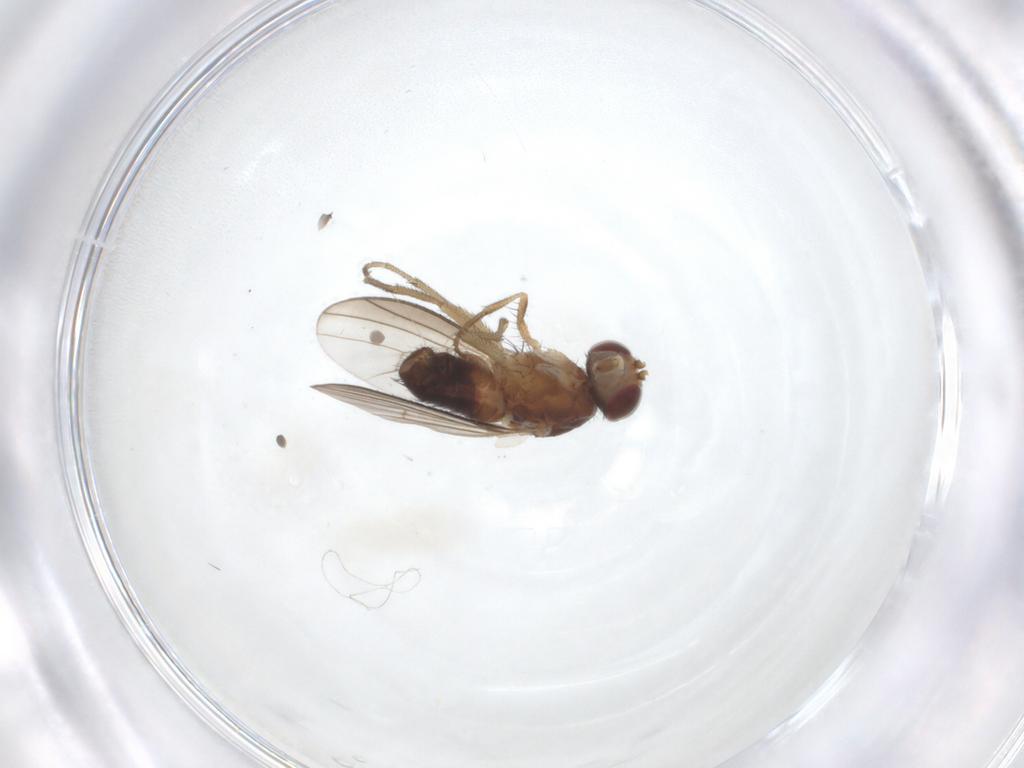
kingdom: Animalia
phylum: Arthropoda
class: Insecta
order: Diptera
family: Heleomyzidae
